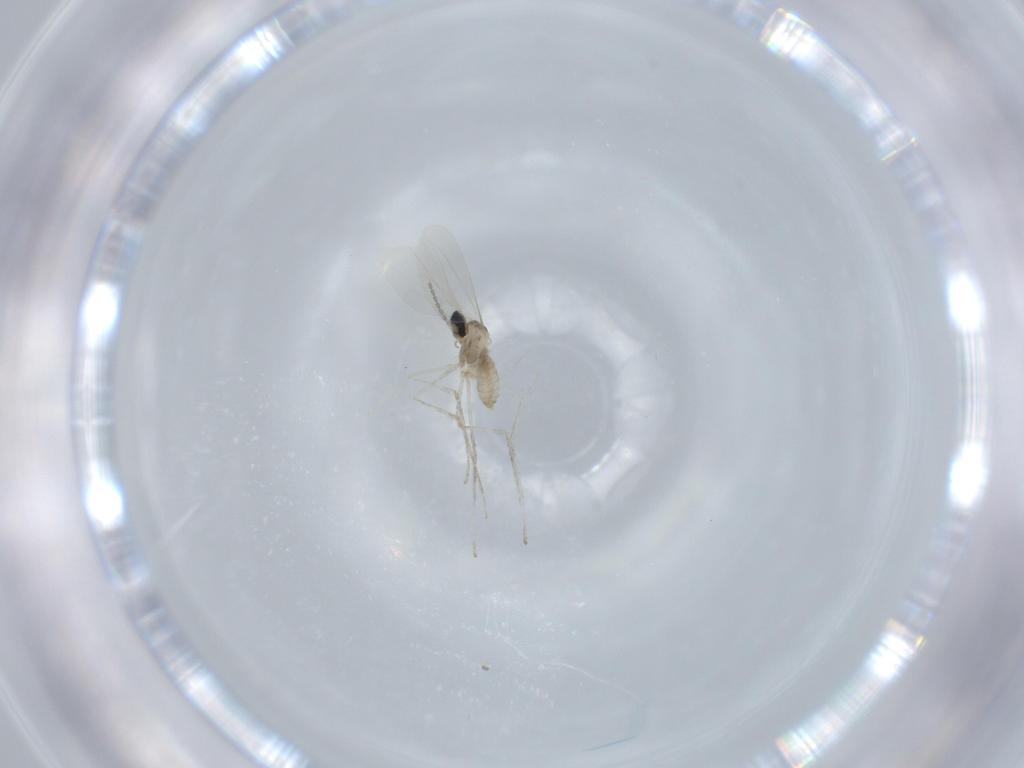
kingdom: Animalia
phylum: Arthropoda
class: Insecta
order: Diptera
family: Cecidomyiidae
